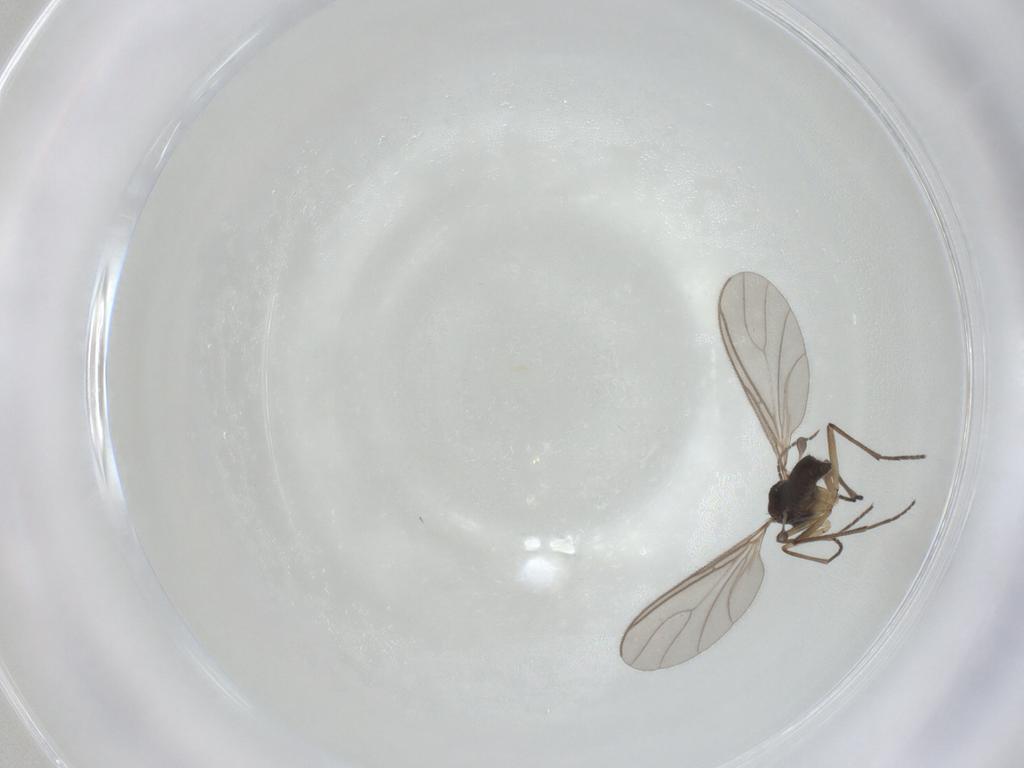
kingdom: Animalia
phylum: Arthropoda
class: Insecta
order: Diptera
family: Sciaridae
